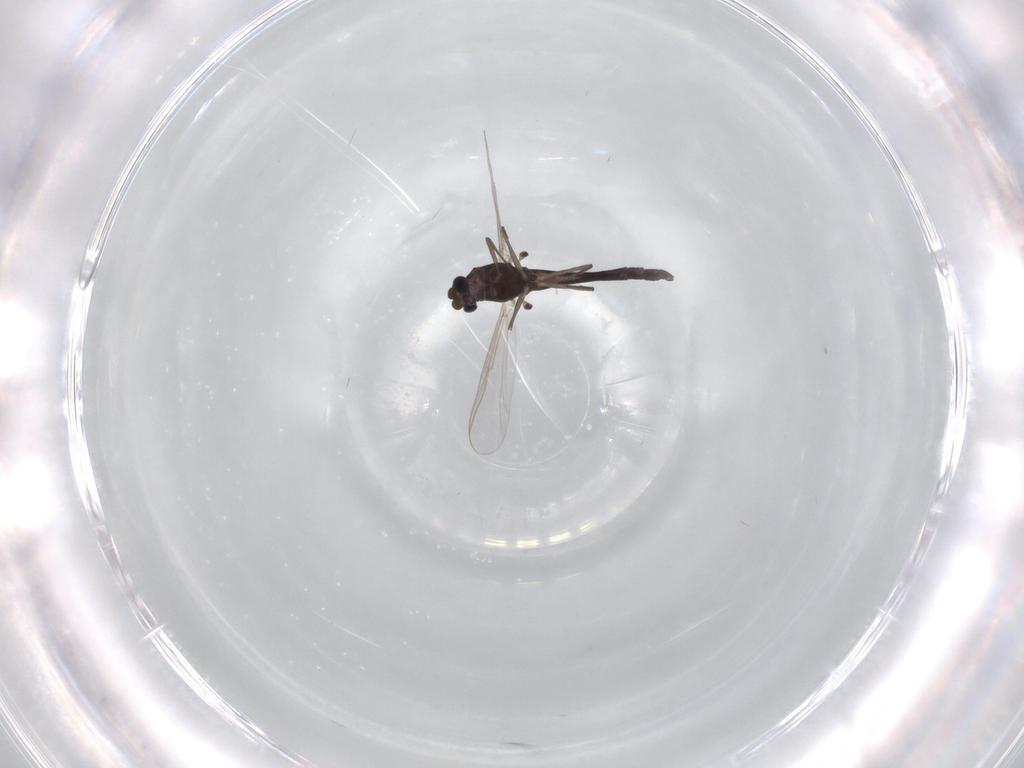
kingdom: Animalia
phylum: Arthropoda
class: Insecta
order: Diptera
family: Chironomidae
